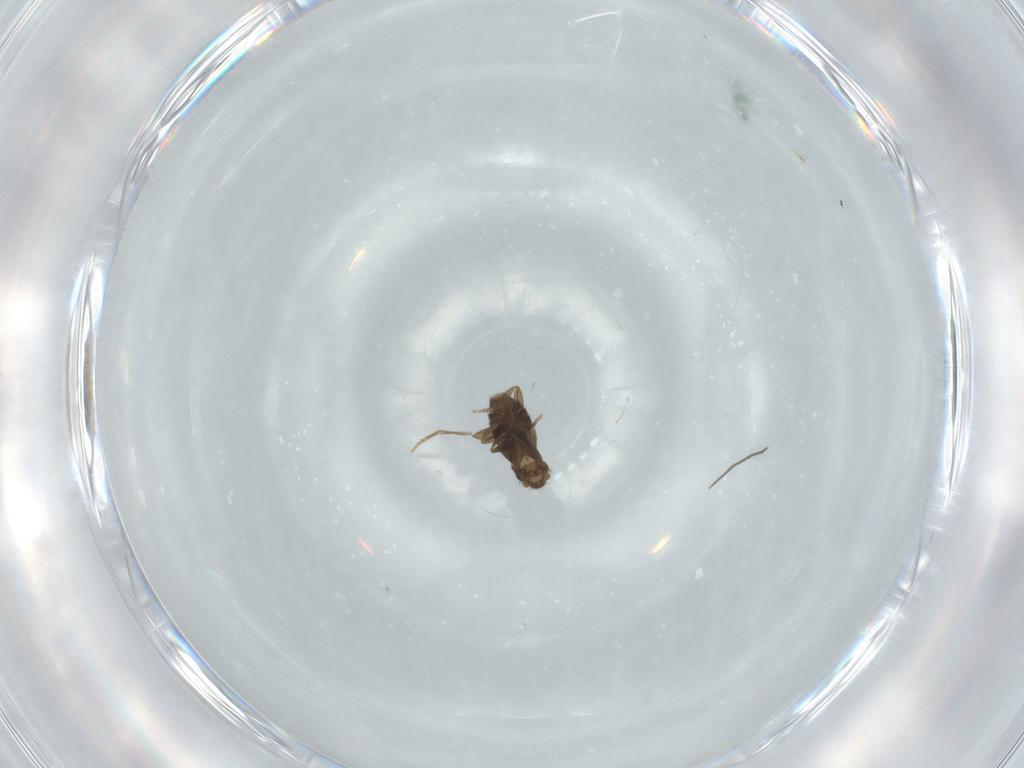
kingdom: Animalia
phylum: Arthropoda
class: Insecta
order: Diptera
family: Chironomidae
